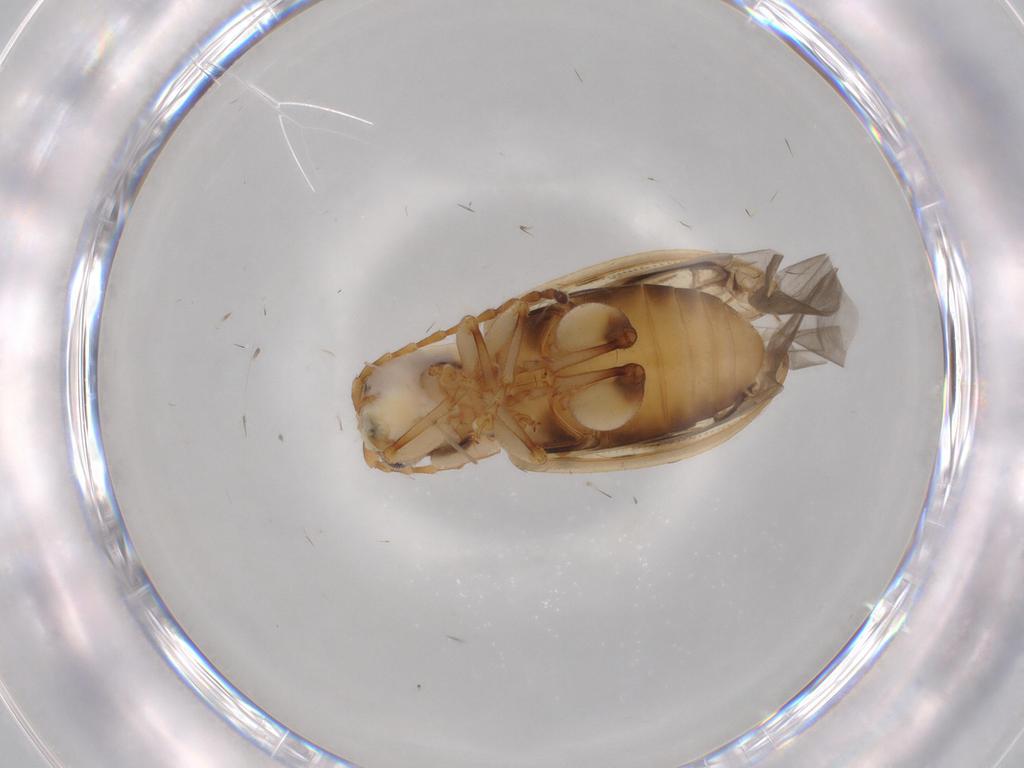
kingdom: Animalia
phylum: Arthropoda
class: Insecta
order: Coleoptera
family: Chrysomelidae
